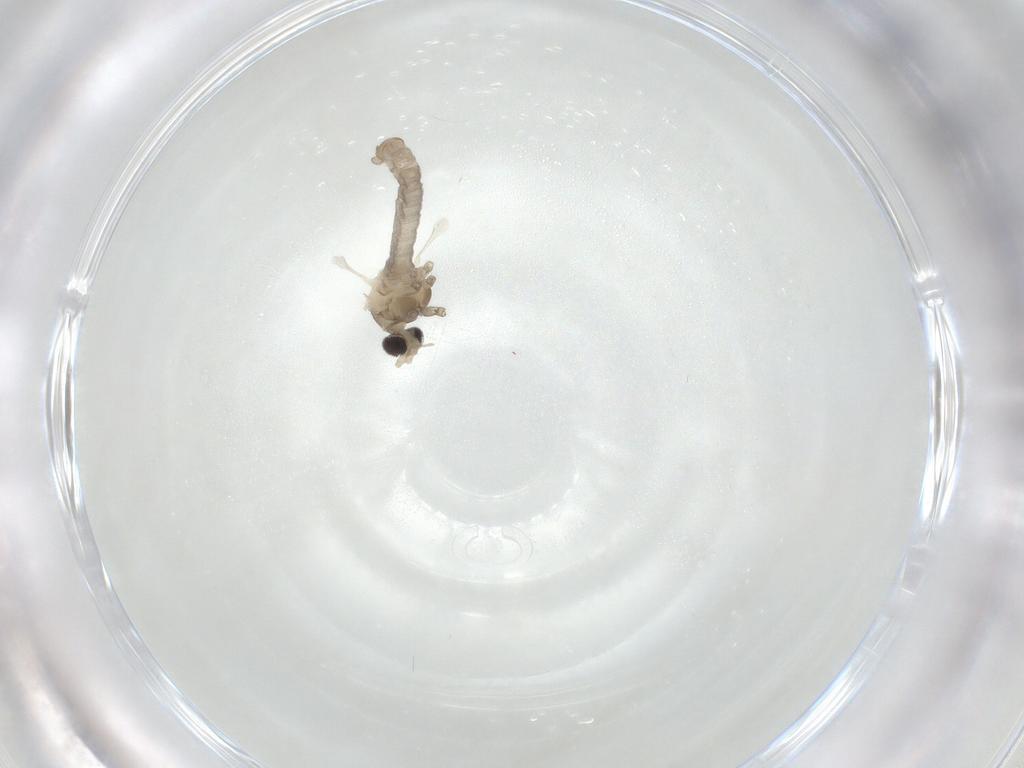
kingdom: Animalia
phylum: Arthropoda
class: Insecta
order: Diptera
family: Cecidomyiidae
